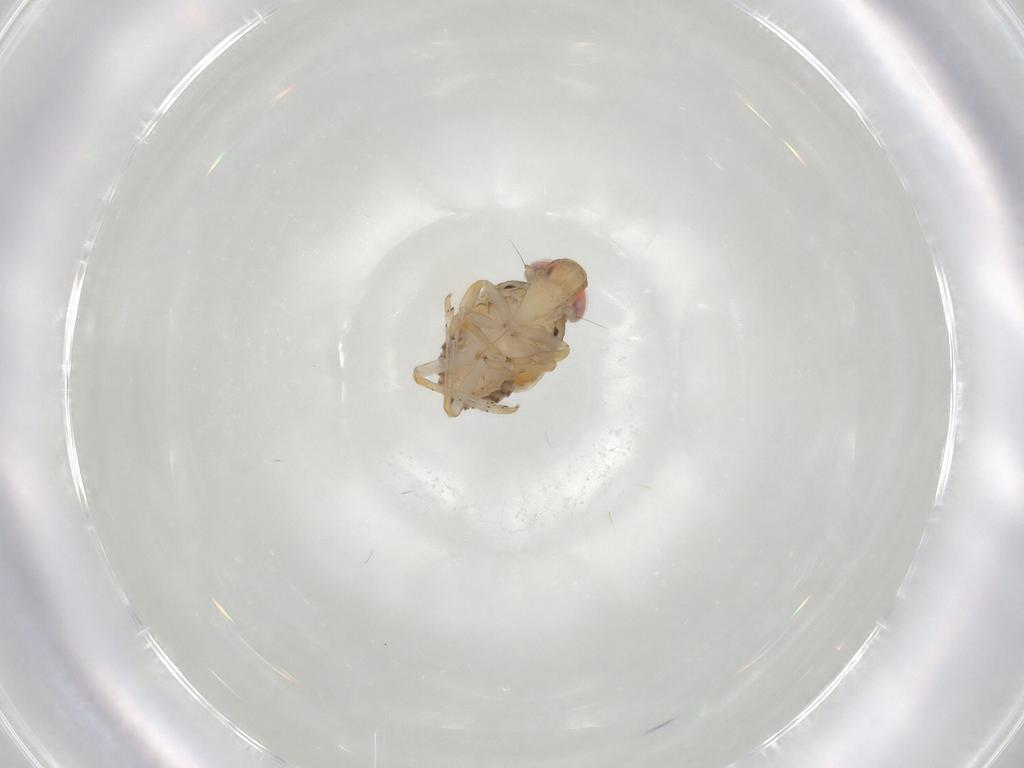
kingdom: Animalia
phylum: Arthropoda
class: Insecta
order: Hemiptera
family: Issidae
